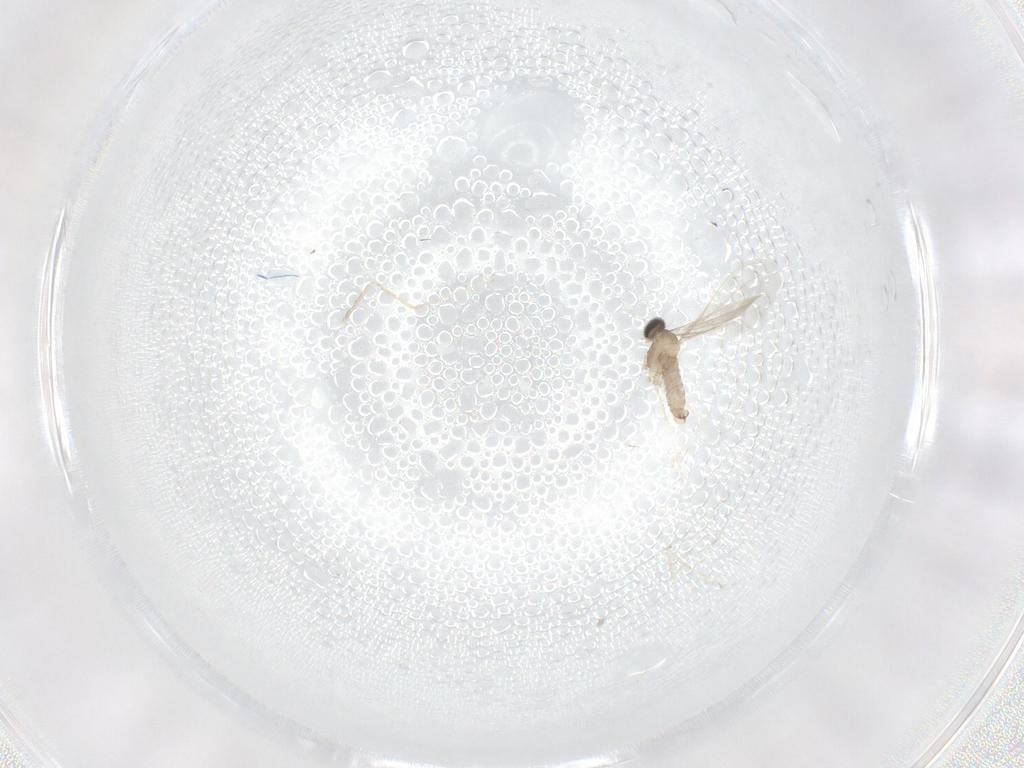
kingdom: Animalia
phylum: Arthropoda
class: Insecta
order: Diptera
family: Cecidomyiidae
